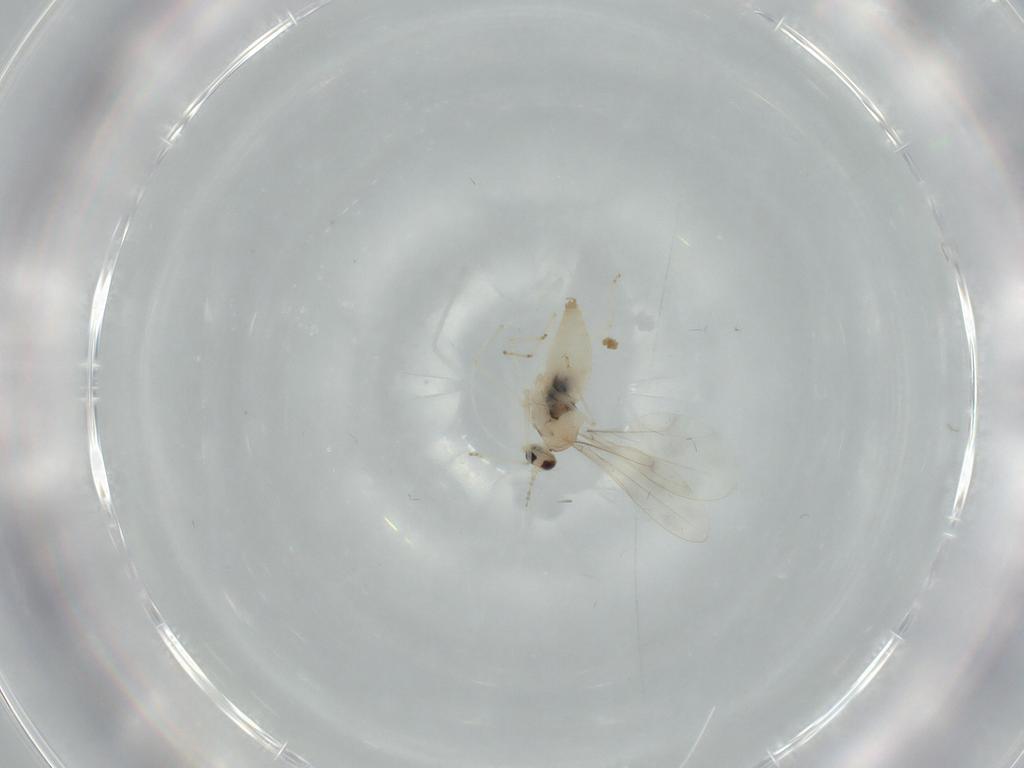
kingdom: Animalia
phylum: Arthropoda
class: Insecta
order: Diptera
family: Cecidomyiidae
